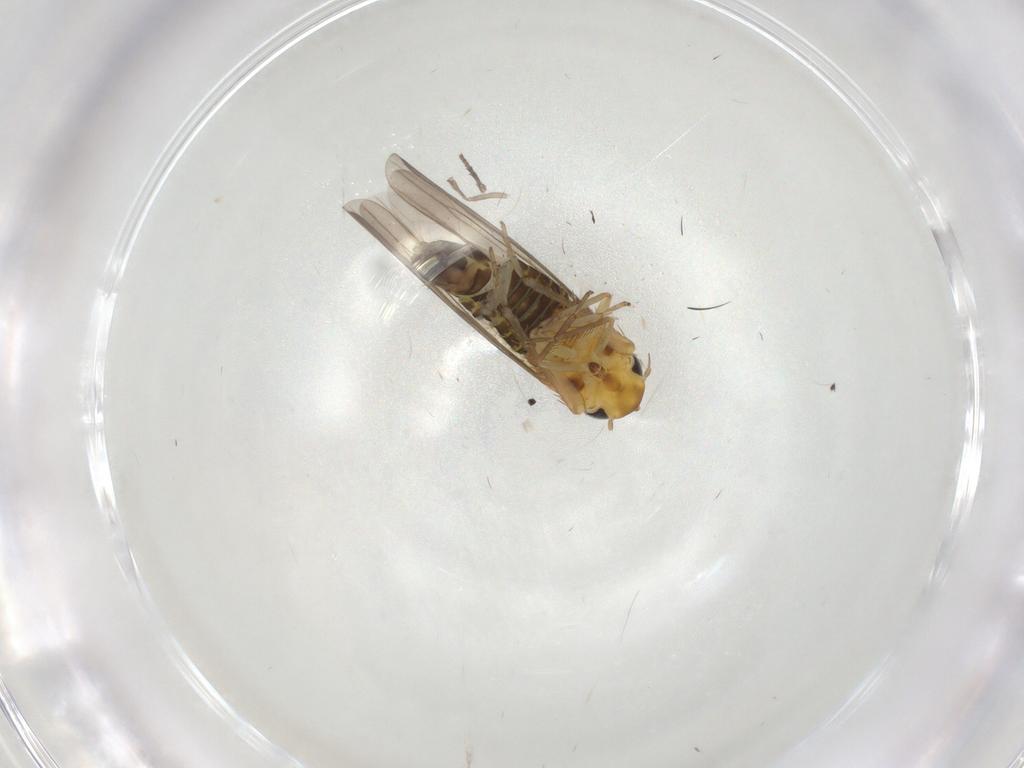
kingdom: Animalia
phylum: Arthropoda
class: Insecta
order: Hemiptera
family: Cicadellidae
